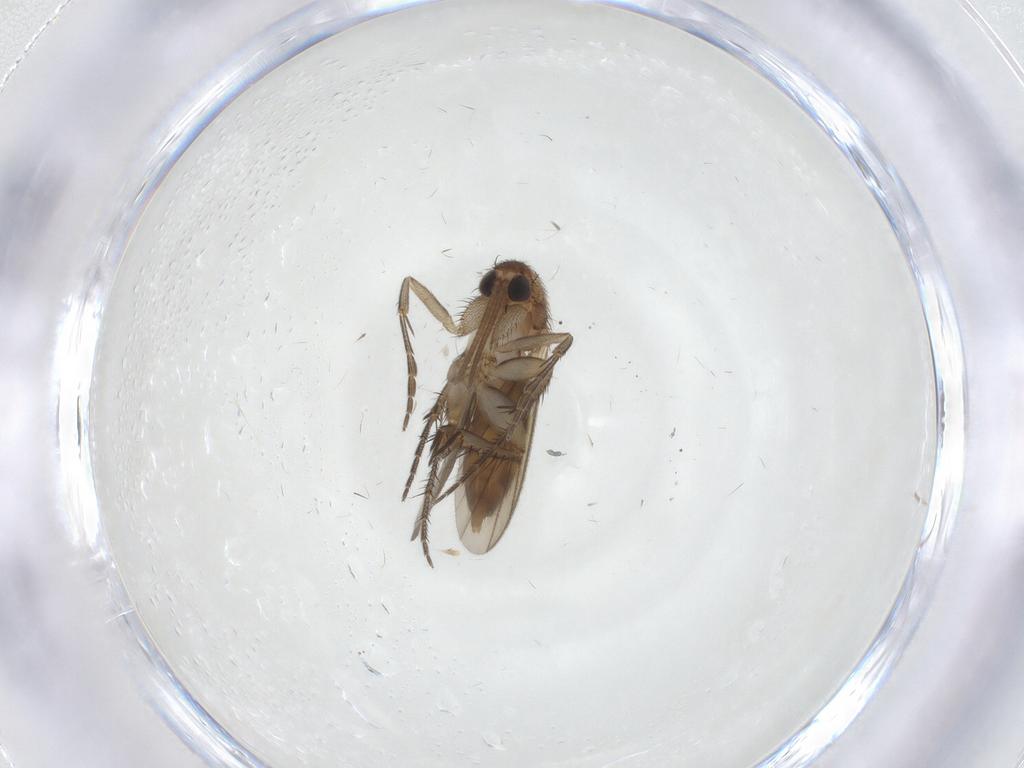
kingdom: Animalia
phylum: Arthropoda
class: Insecta
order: Diptera
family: Mycetophilidae
